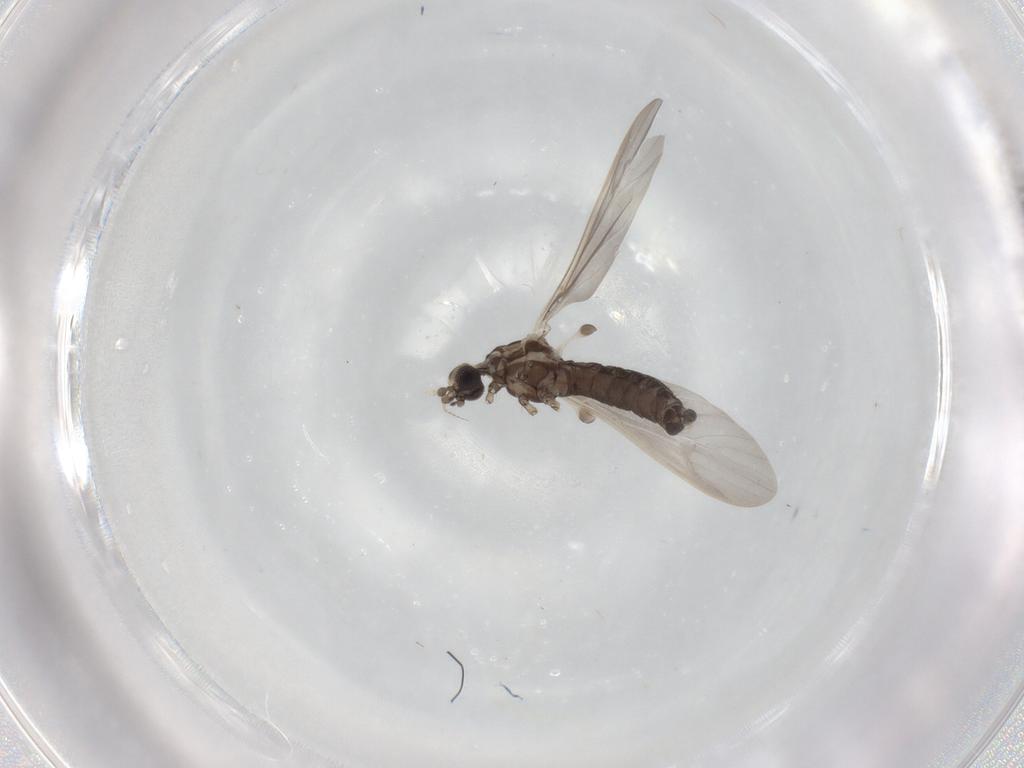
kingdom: Animalia
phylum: Arthropoda
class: Insecta
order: Diptera
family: Limoniidae
